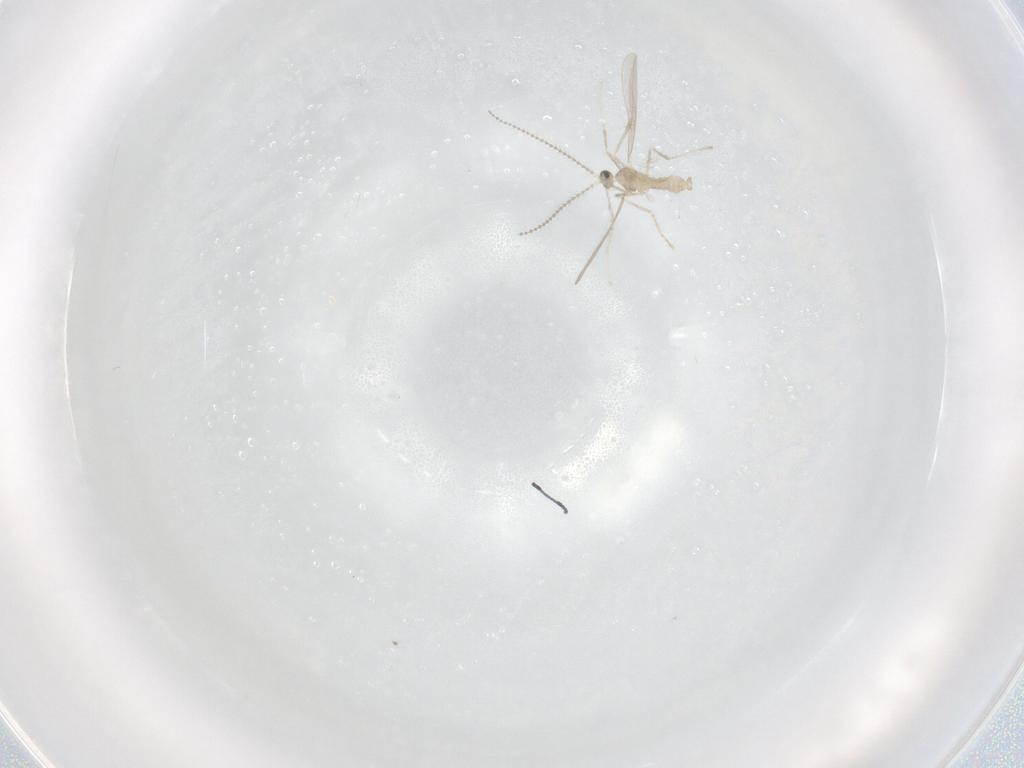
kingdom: Animalia
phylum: Arthropoda
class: Insecta
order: Diptera
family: Cecidomyiidae
